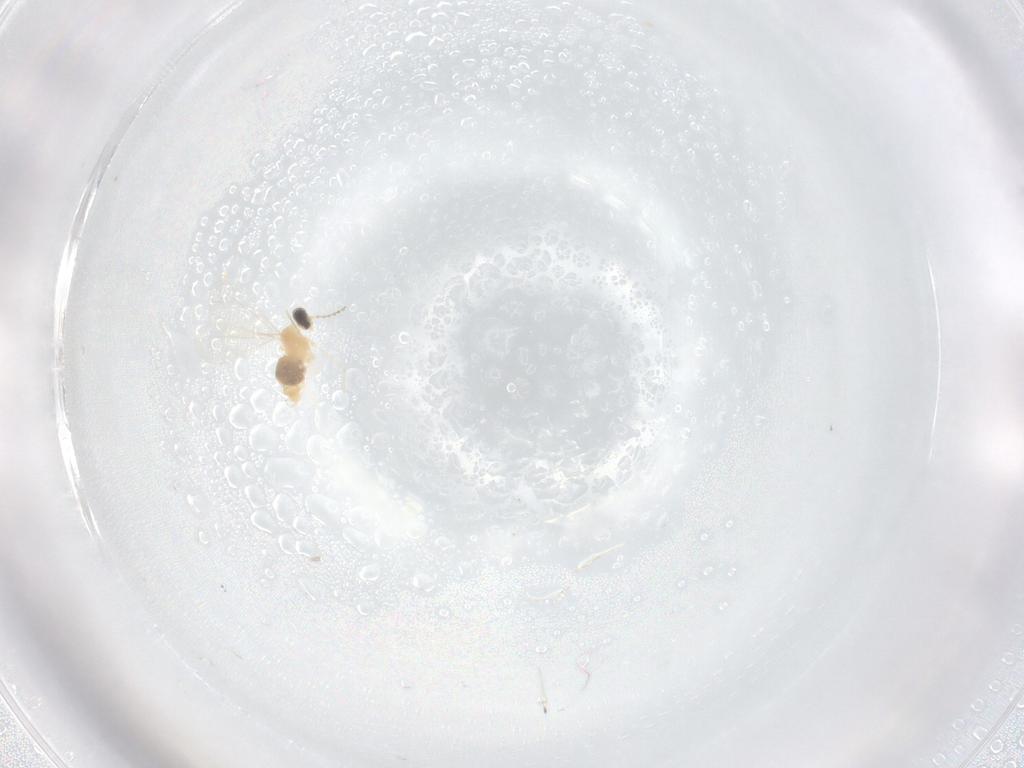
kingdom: Animalia
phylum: Arthropoda
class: Insecta
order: Diptera
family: Cecidomyiidae
